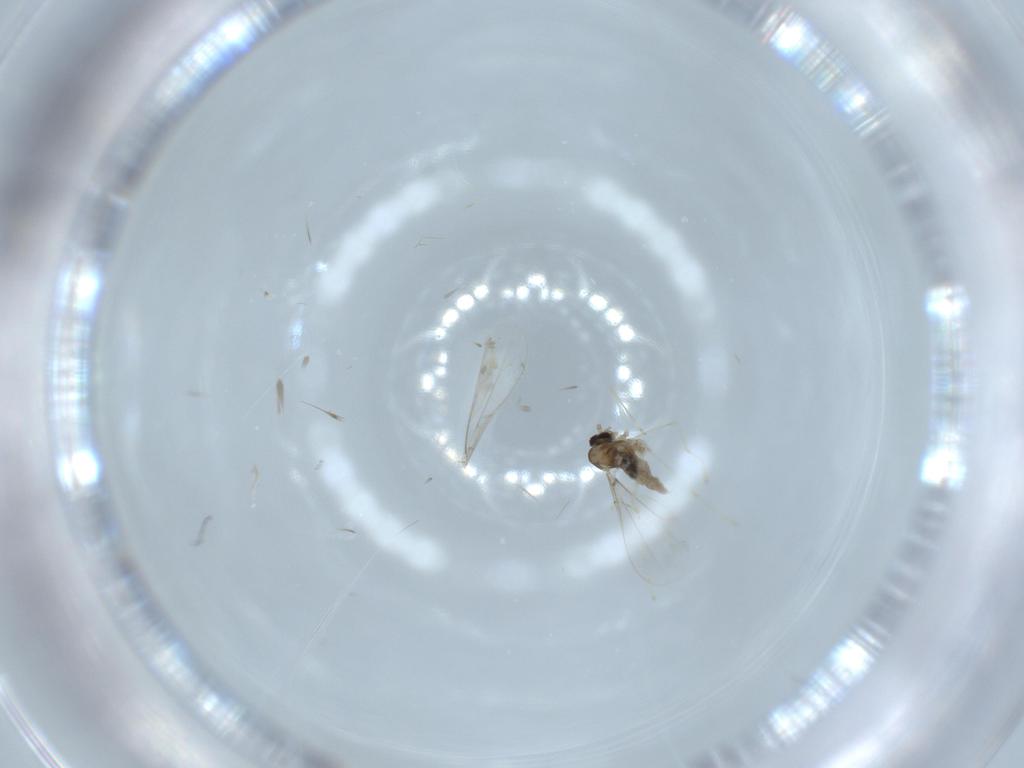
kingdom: Animalia
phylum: Arthropoda
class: Insecta
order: Diptera
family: Cecidomyiidae
